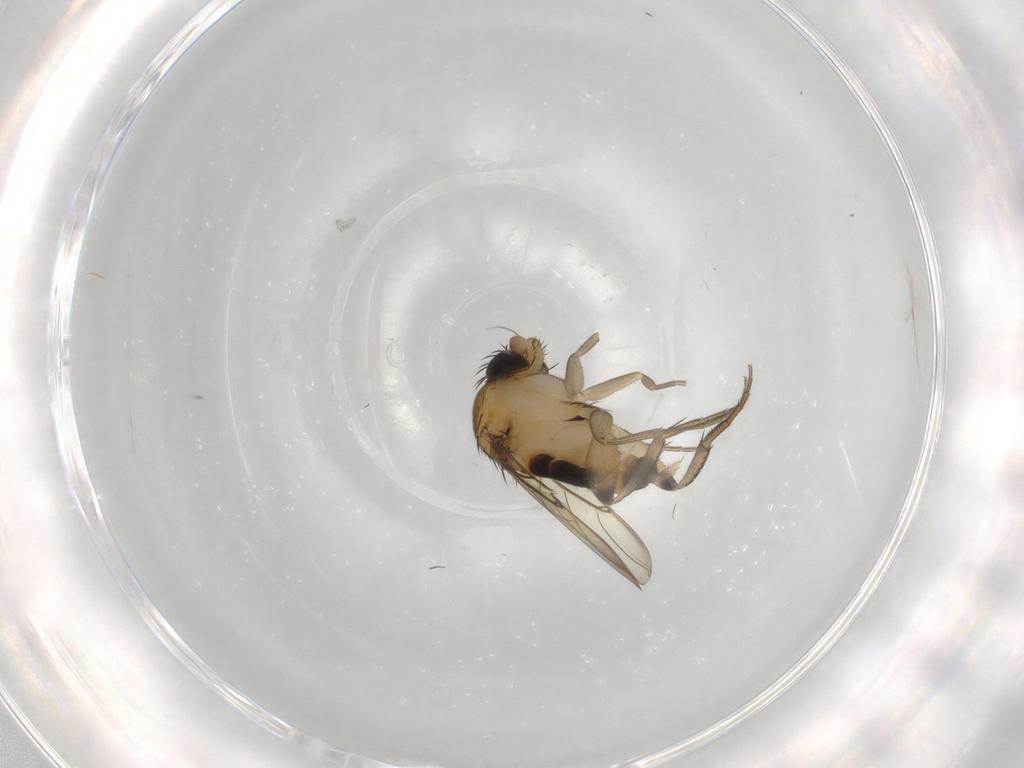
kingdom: Animalia
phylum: Arthropoda
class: Insecta
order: Diptera
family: Phoridae
